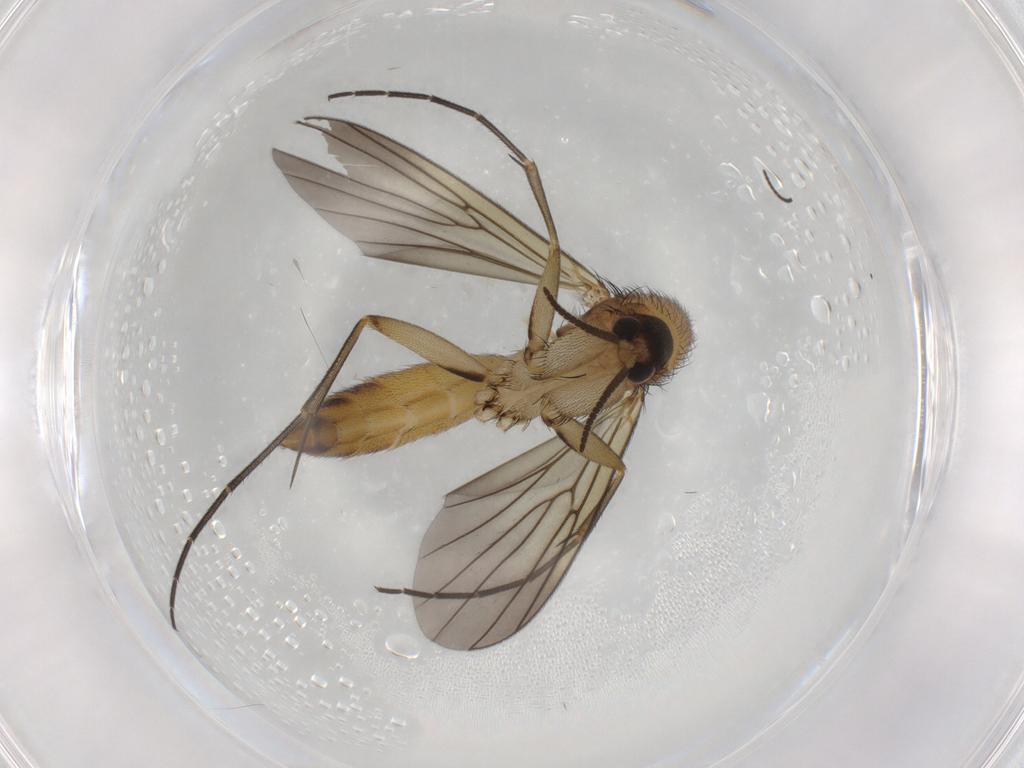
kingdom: Animalia
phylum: Arthropoda
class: Insecta
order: Diptera
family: Mycetophilidae
